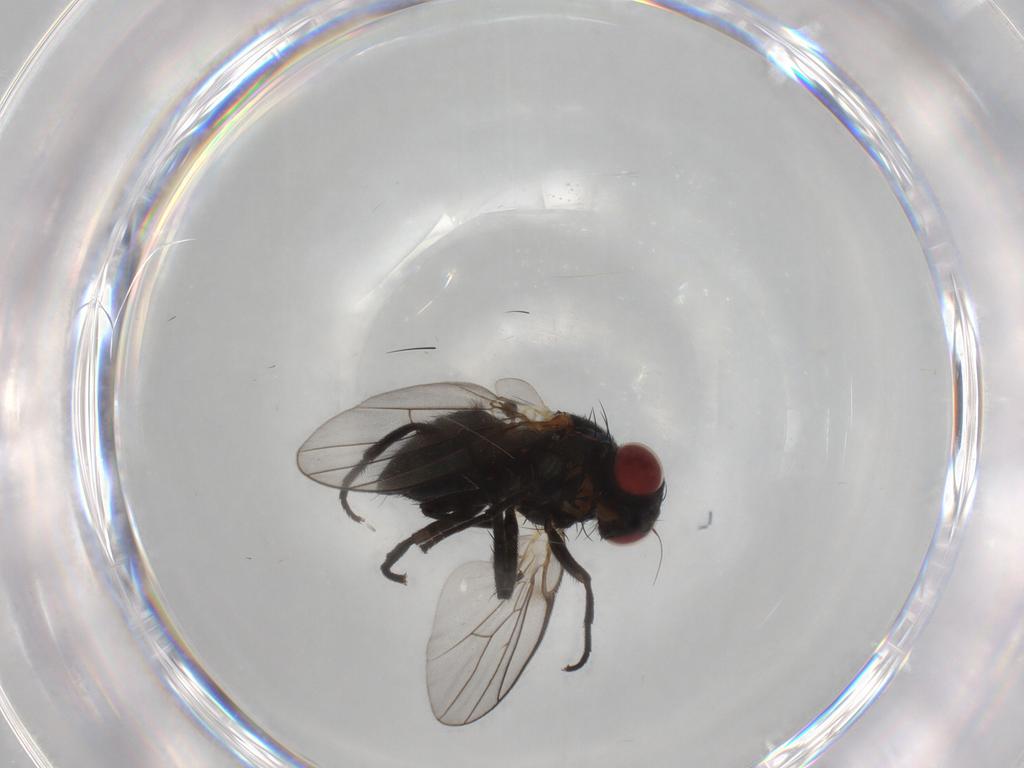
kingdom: Animalia
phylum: Arthropoda
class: Insecta
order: Diptera
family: Agromyzidae
